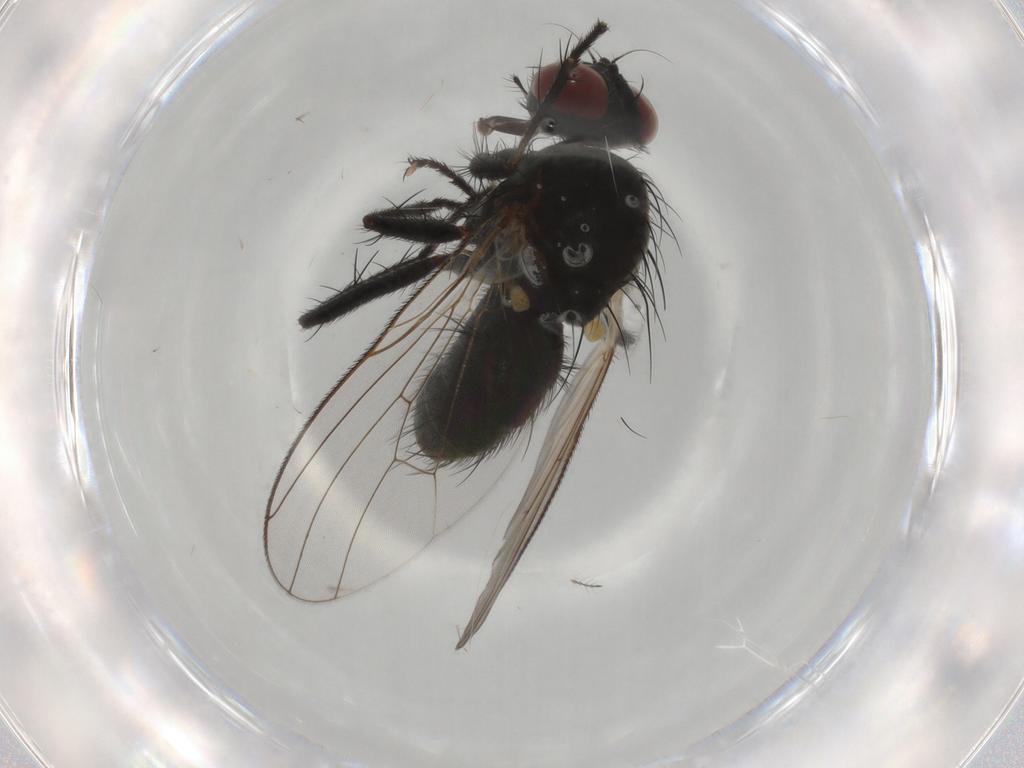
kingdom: Animalia
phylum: Arthropoda
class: Insecta
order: Diptera
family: Muscidae
